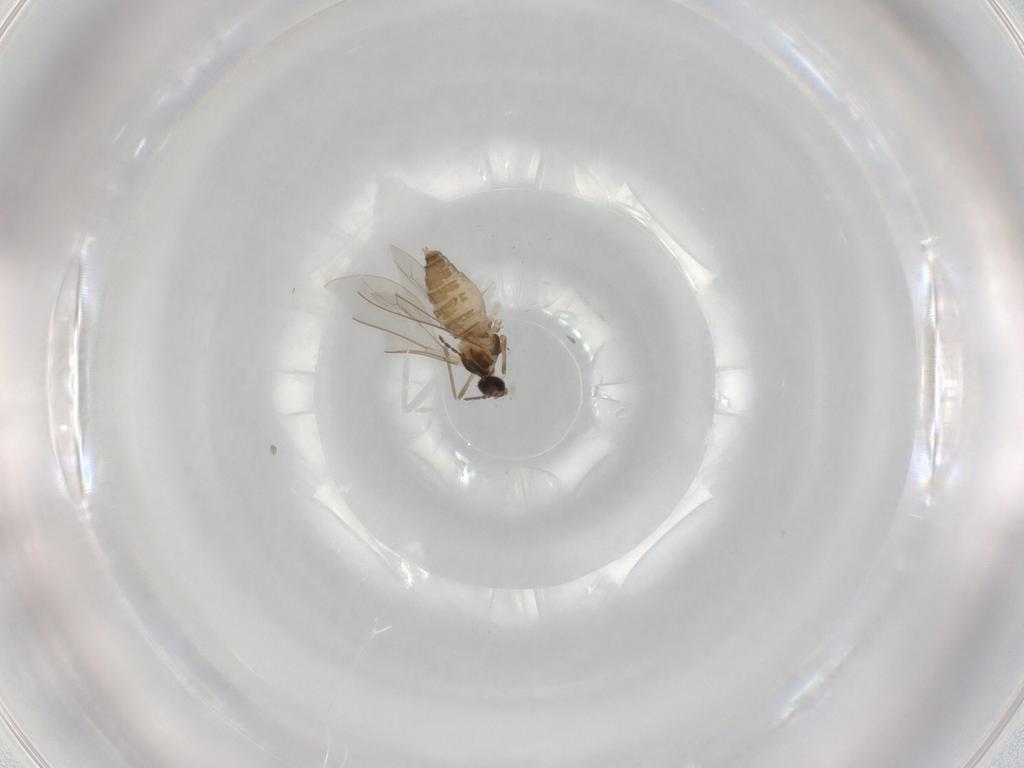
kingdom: Animalia
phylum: Arthropoda
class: Insecta
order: Diptera
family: Cecidomyiidae
